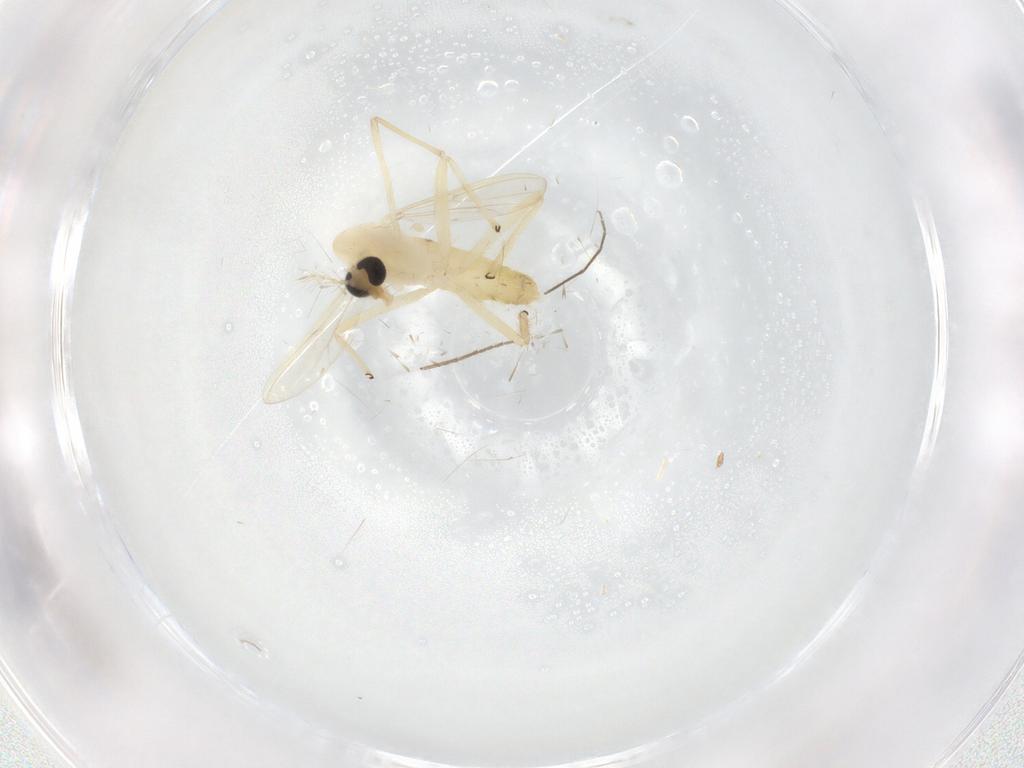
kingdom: Animalia
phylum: Arthropoda
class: Insecta
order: Diptera
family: Chironomidae
